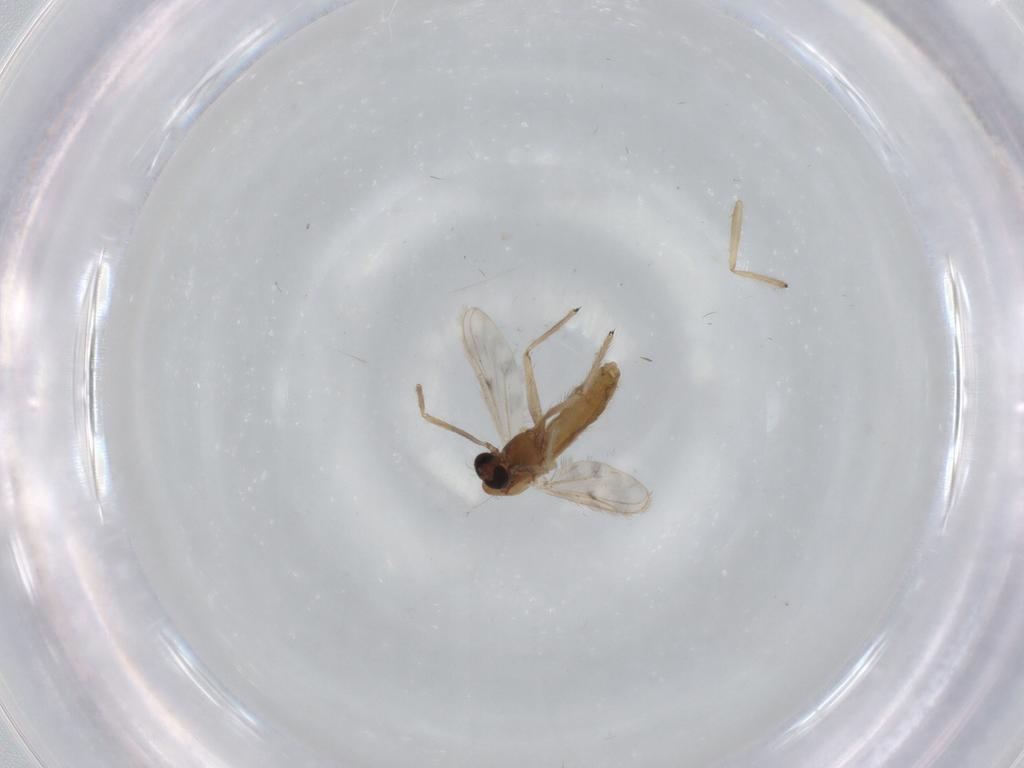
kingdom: Animalia
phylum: Arthropoda
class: Insecta
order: Diptera
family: Chironomidae
